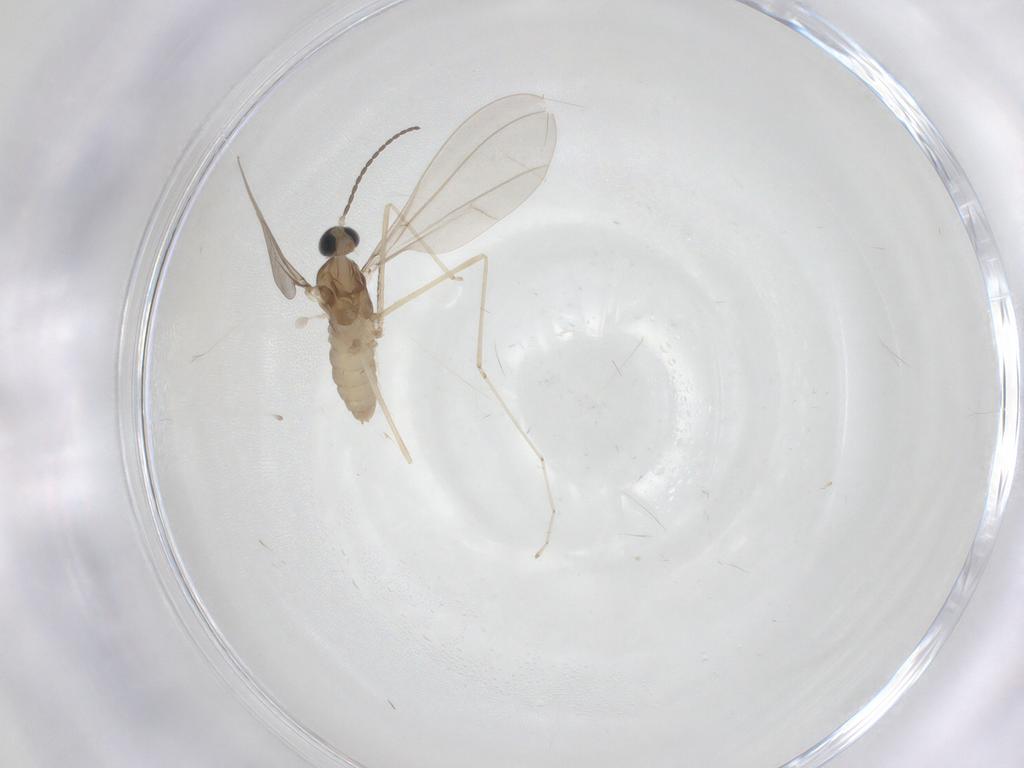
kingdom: Animalia
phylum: Arthropoda
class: Insecta
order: Diptera
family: Cecidomyiidae
